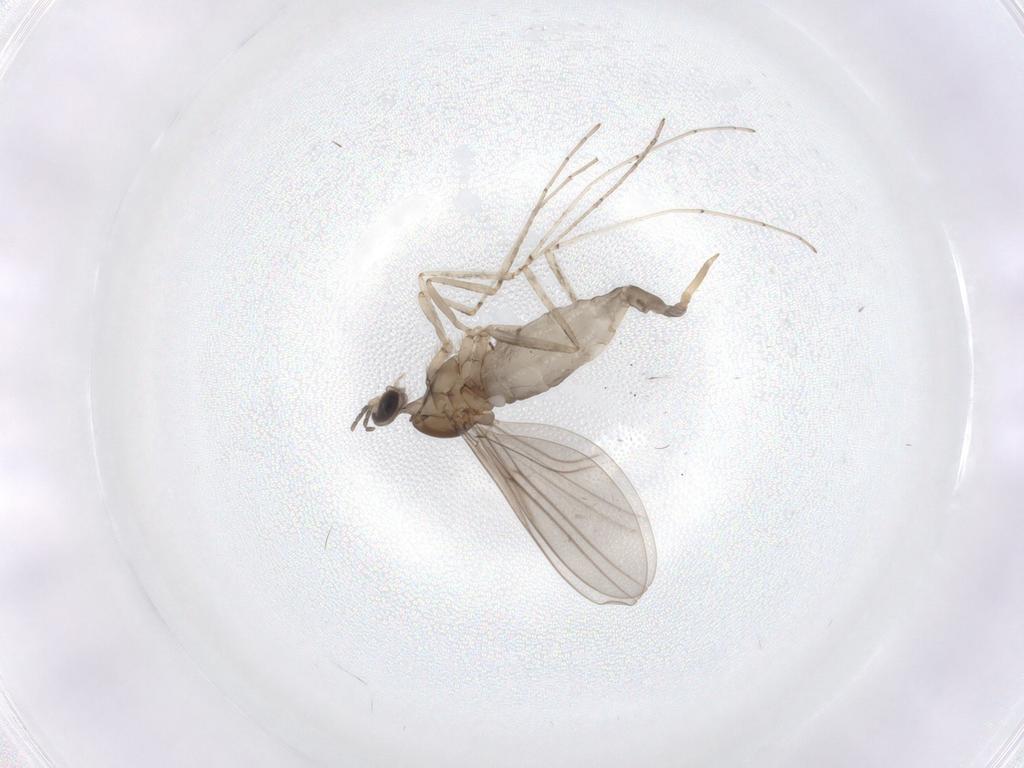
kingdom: Animalia
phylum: Arthropoda
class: Insecta
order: Diptera
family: Cecidomyiidae
